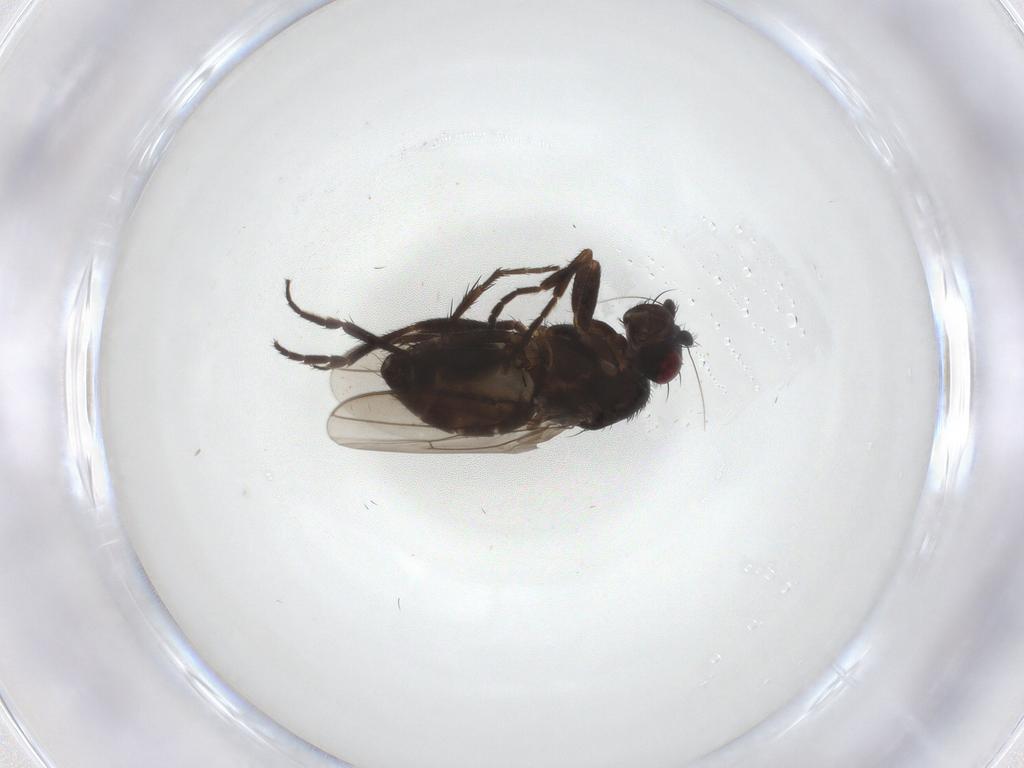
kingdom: Animalia
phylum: Arthropoda
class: Insecta
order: Diptera
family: Sphaeroceridae
